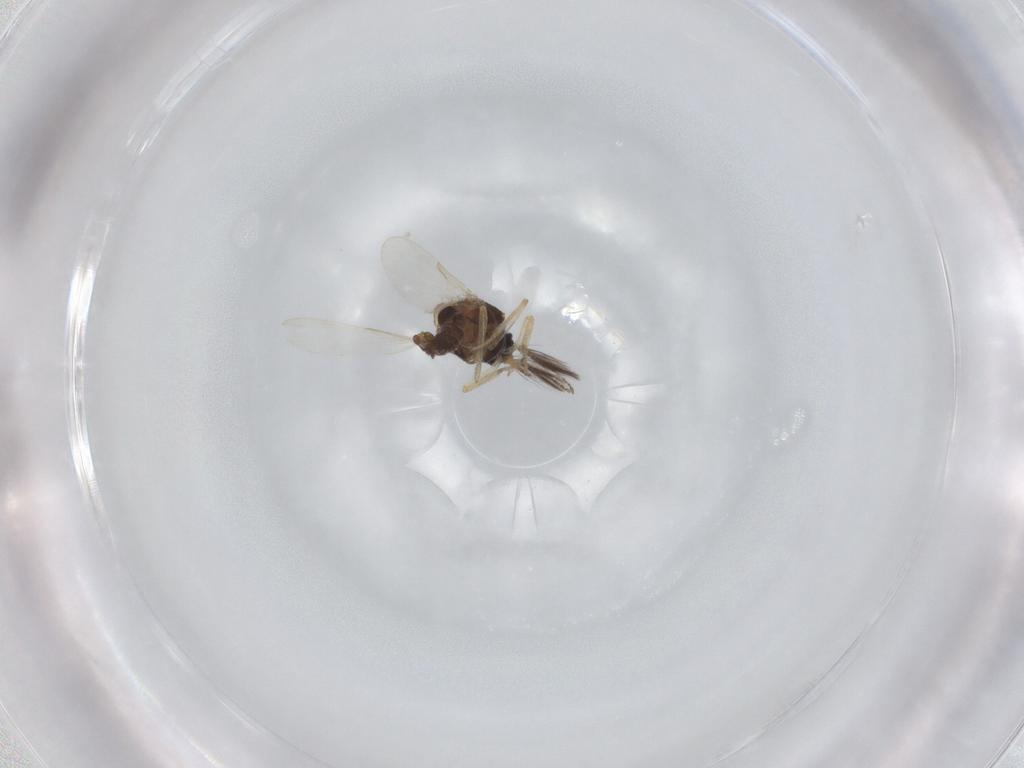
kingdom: Animalia
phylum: Arthropoda
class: Insecta
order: Diptera
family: Ceratopogonidae
